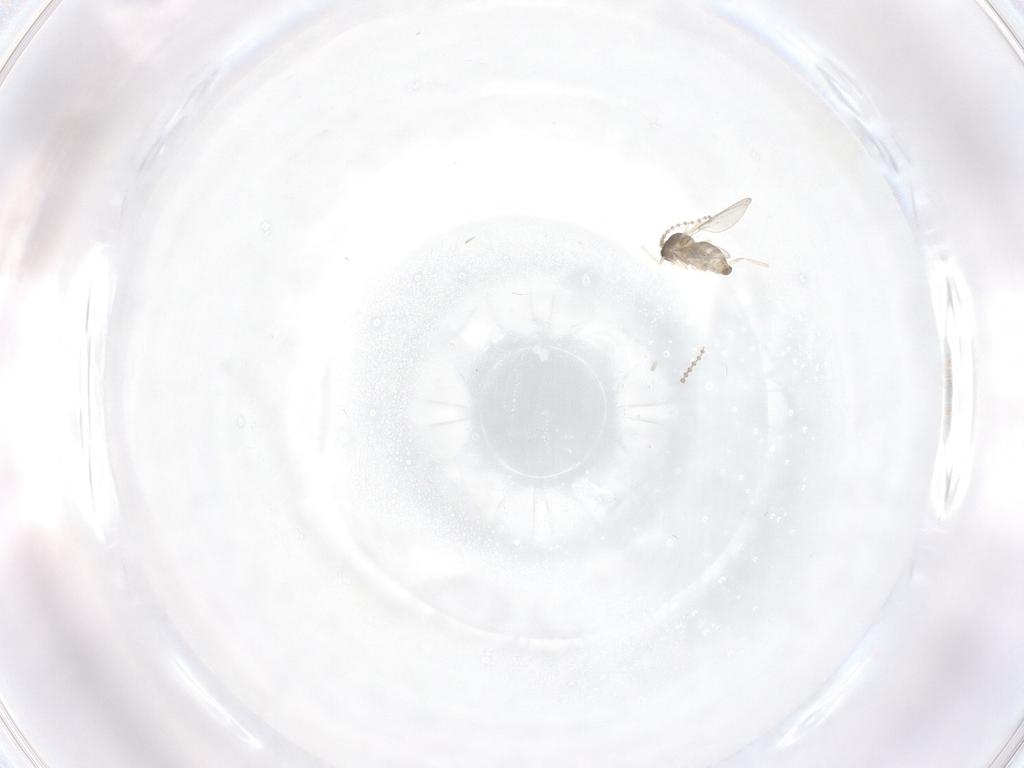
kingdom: Animalia
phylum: Arthropoda
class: Insecta
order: Diptera
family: Cecidomyiidae
